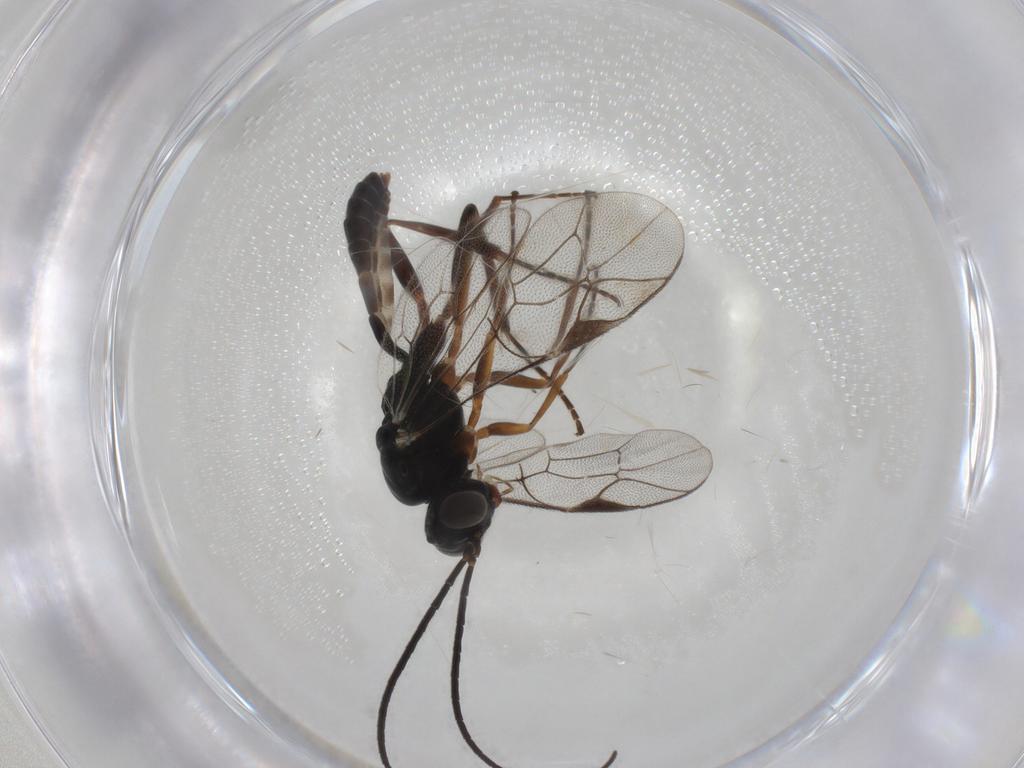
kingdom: Animalia
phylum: Arthropoda
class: Insecta
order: Hymenoptera
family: Ichneumonidae
